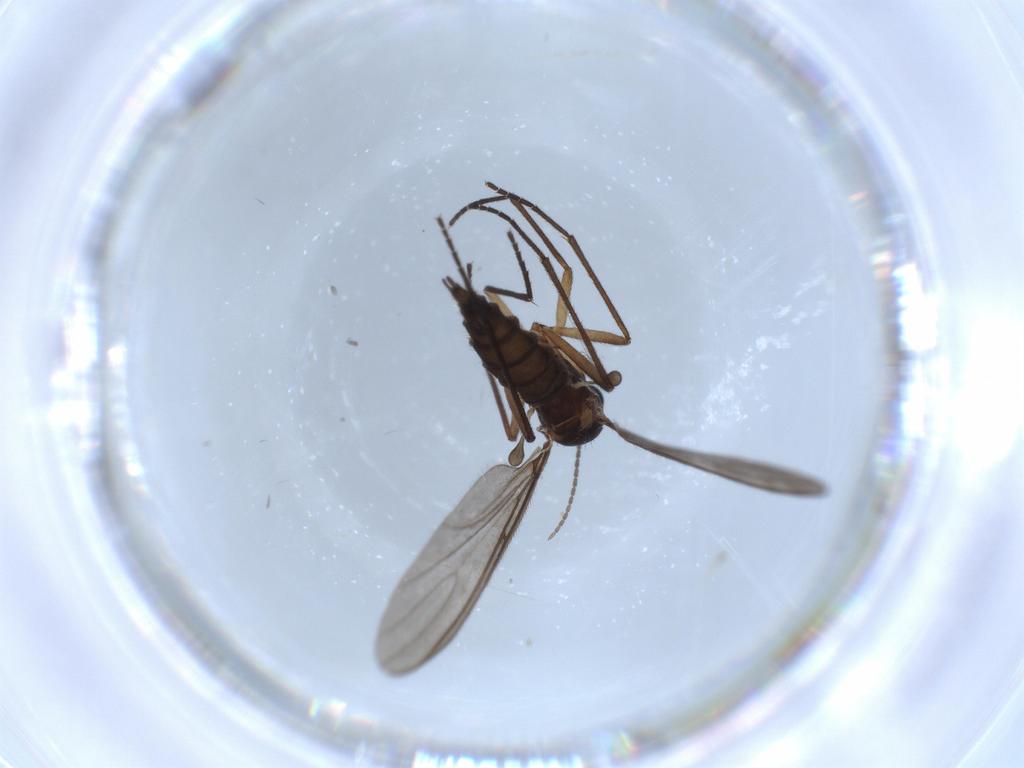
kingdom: Animalia
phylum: Arthropoda
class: Insecta
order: Diptera
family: Sciaridae
